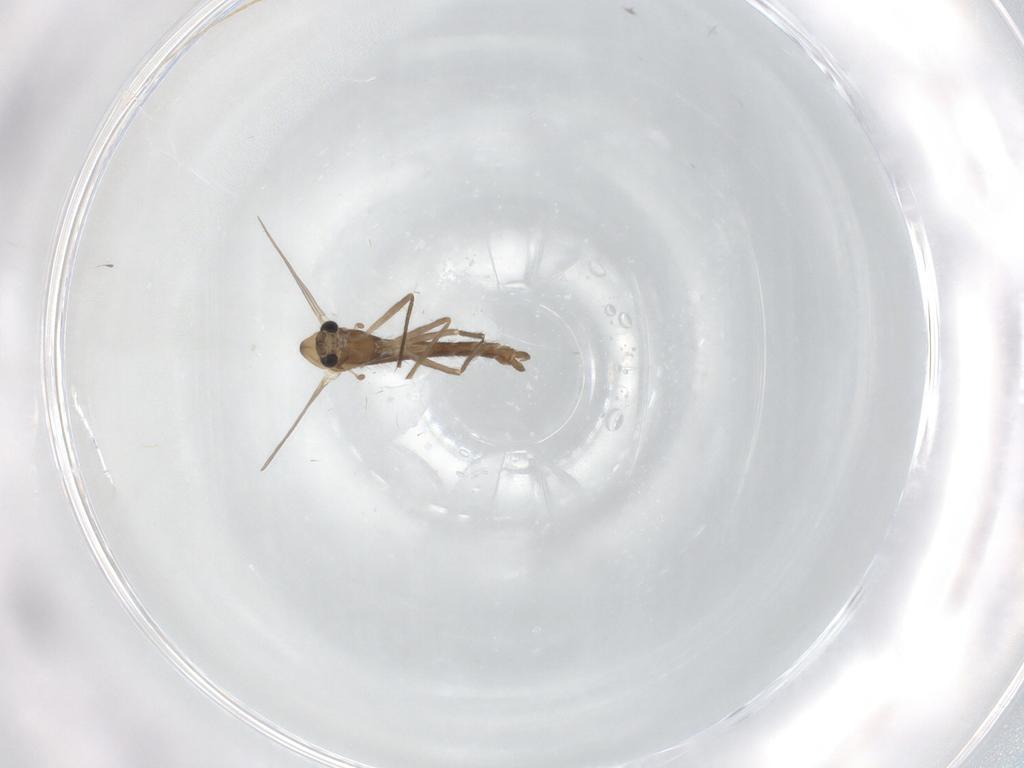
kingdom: Animalia
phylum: Arthropoda
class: Insecta
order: Diptera
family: Chironomidae
